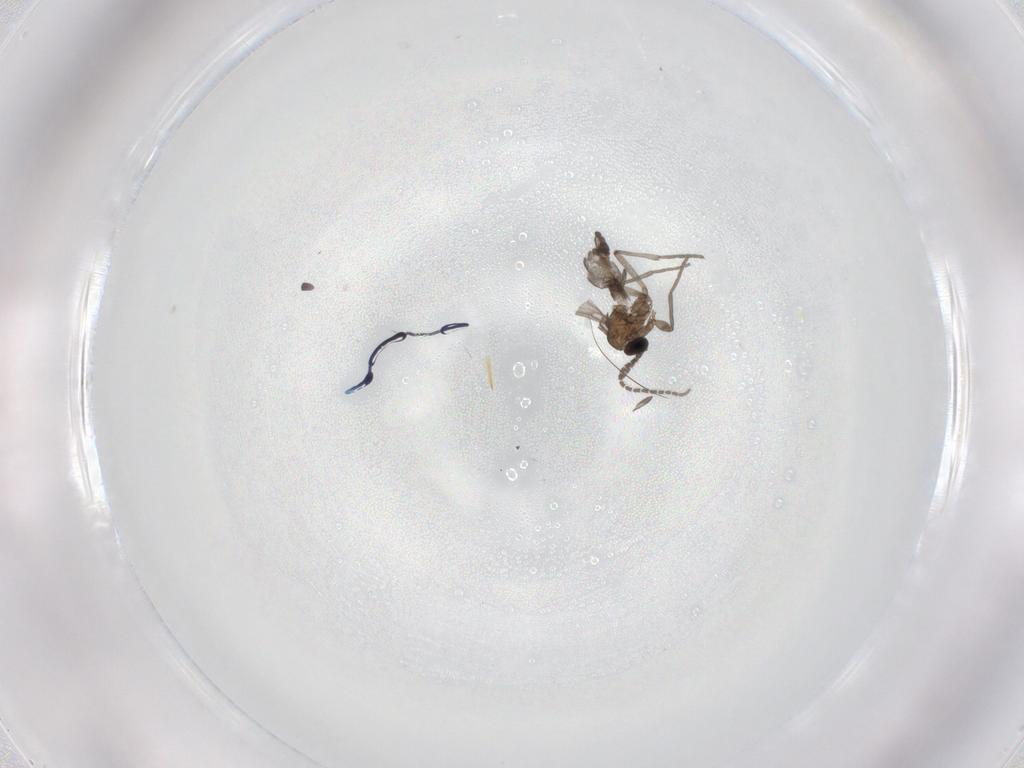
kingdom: Animalia
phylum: Arthropoda
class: Insecta
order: Diptera
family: Sciaridae
